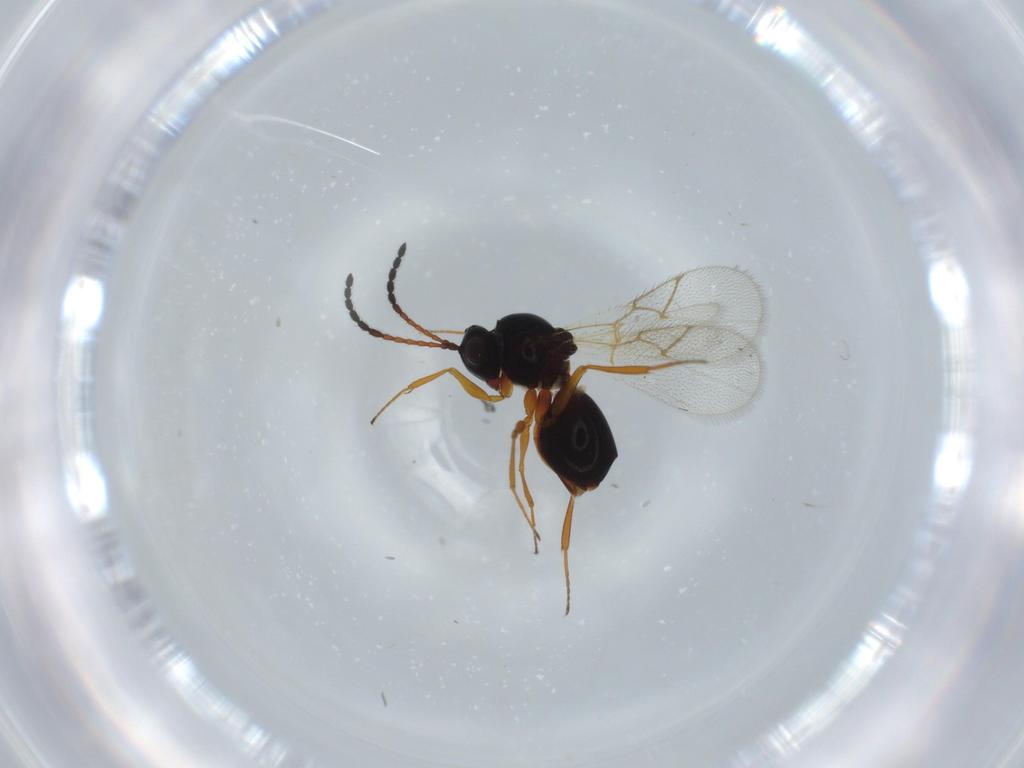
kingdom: Animalia
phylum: Arthropoda
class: Insecta
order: Hymenoptera
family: Figitidae
